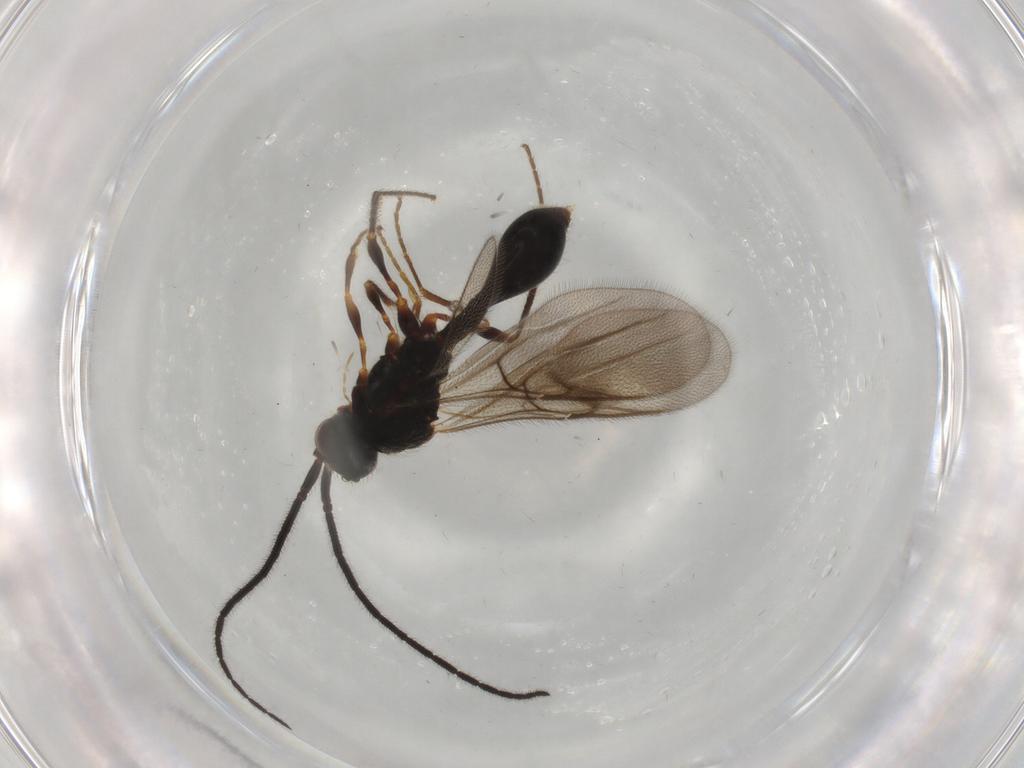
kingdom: Animalia
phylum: Arthropoda
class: Insecta
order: Hymenoptera
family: Diapriidae
